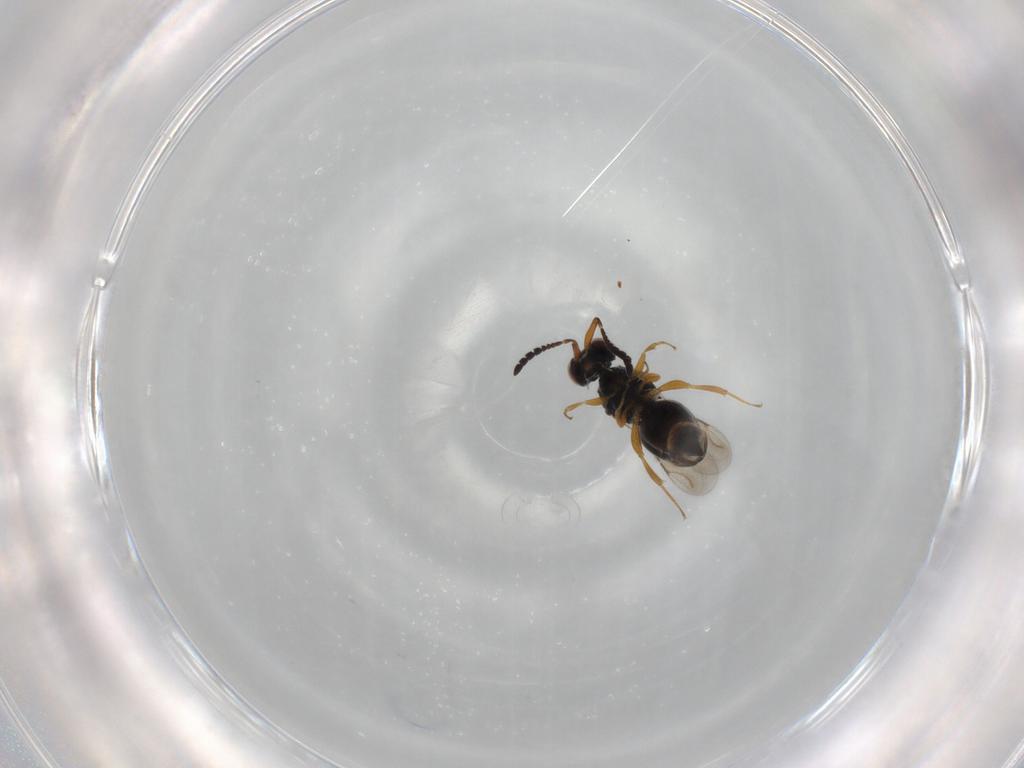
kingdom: Animalia
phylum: Arthropoda
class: Insecta
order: Hymenoptera
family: Ceraphronidae
